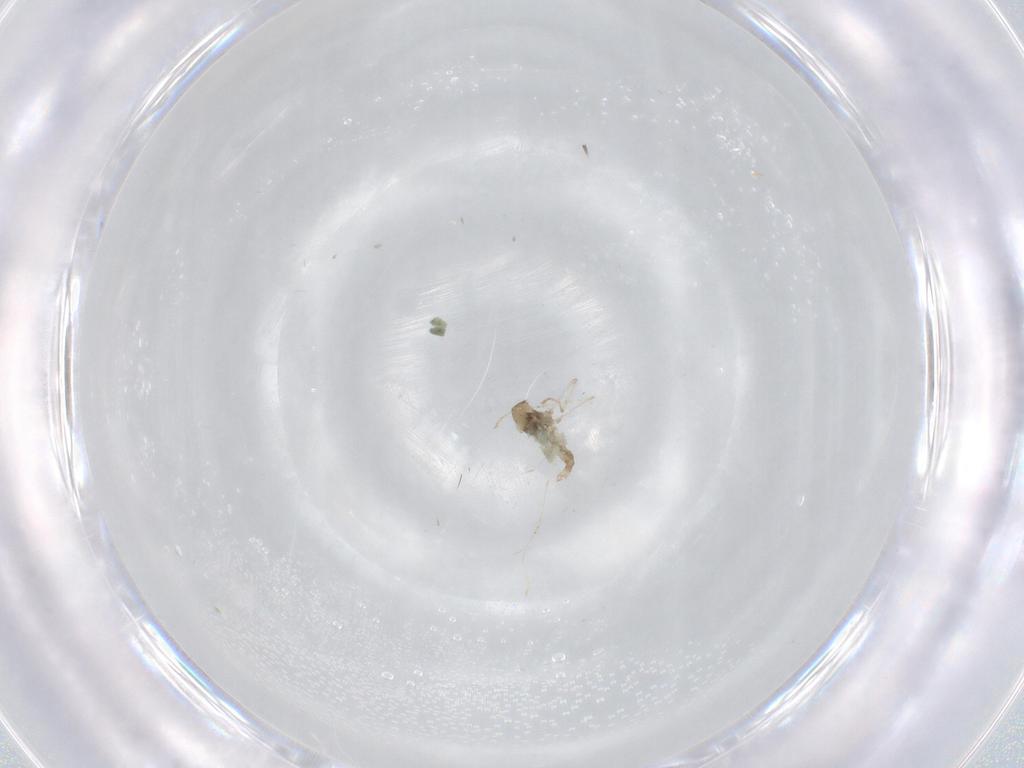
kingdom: Animalia
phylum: Arthropoda
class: Insecta
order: Diptera
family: Cecidomyiidae
